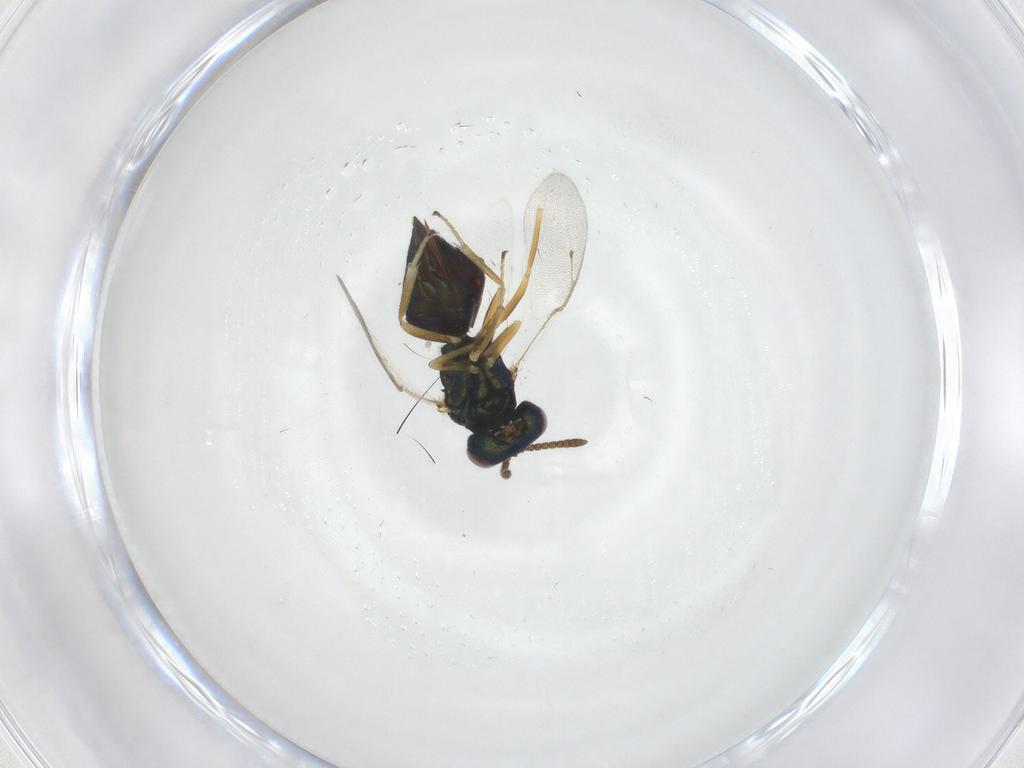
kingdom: Animalia
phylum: Arthropoda
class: Insecta
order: Hymenoptera
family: Pteromalidae
